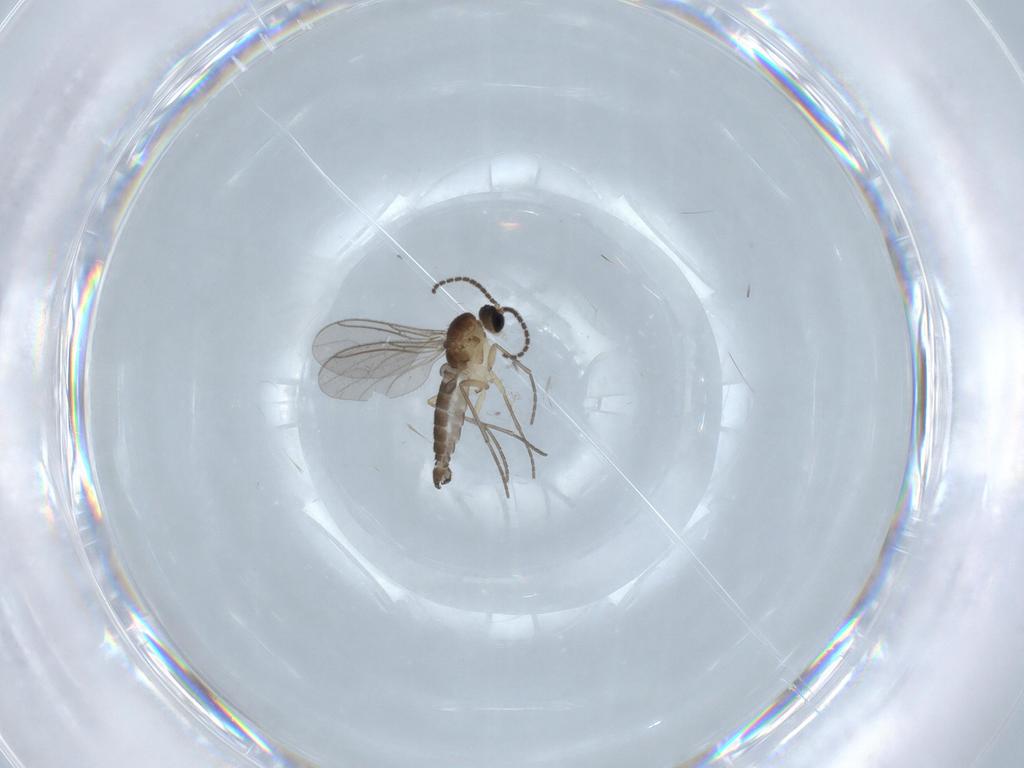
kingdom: Animalia
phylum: Arthropoda
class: Insecta
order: Diptera
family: Sciaridae
